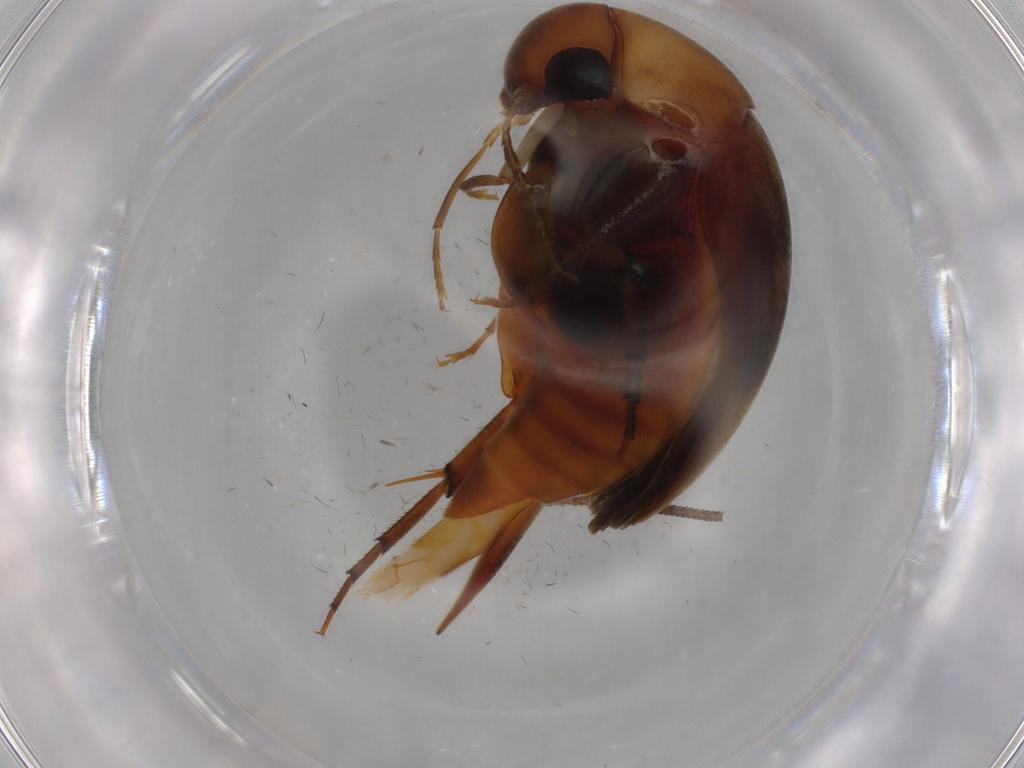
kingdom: Animalia
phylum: Arthropoda
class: Insecta
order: Coleoptera
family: Mordellidae
